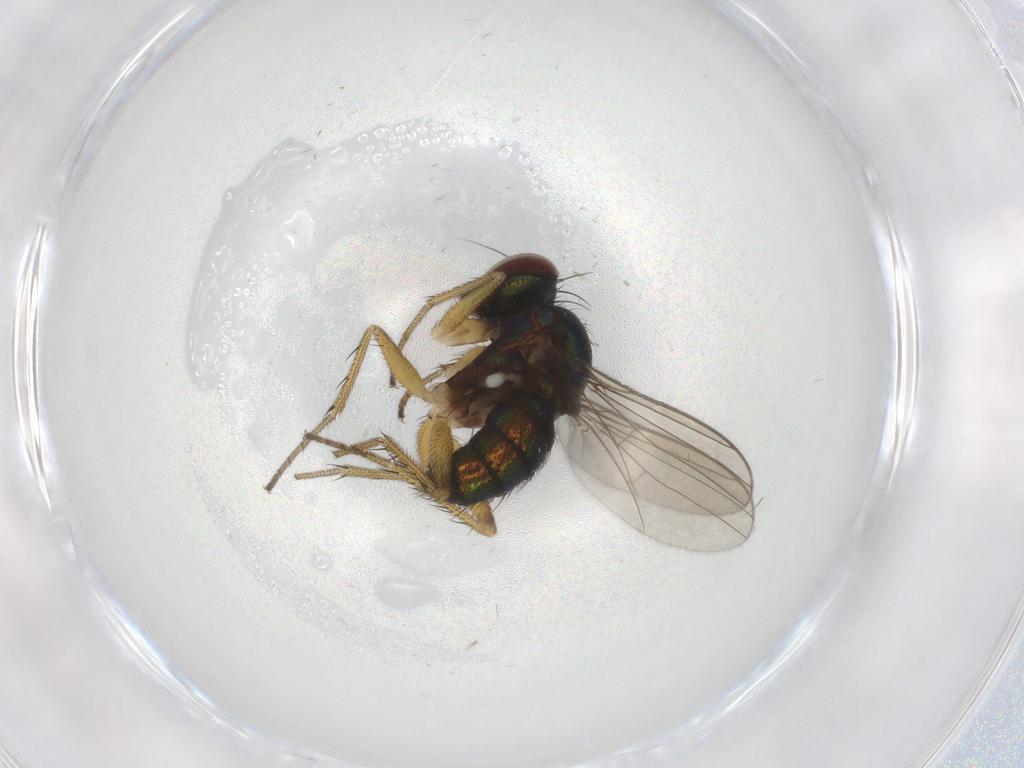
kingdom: Animalia
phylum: Arthropoda
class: Insecta
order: Diptera
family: Dolichopodidae
